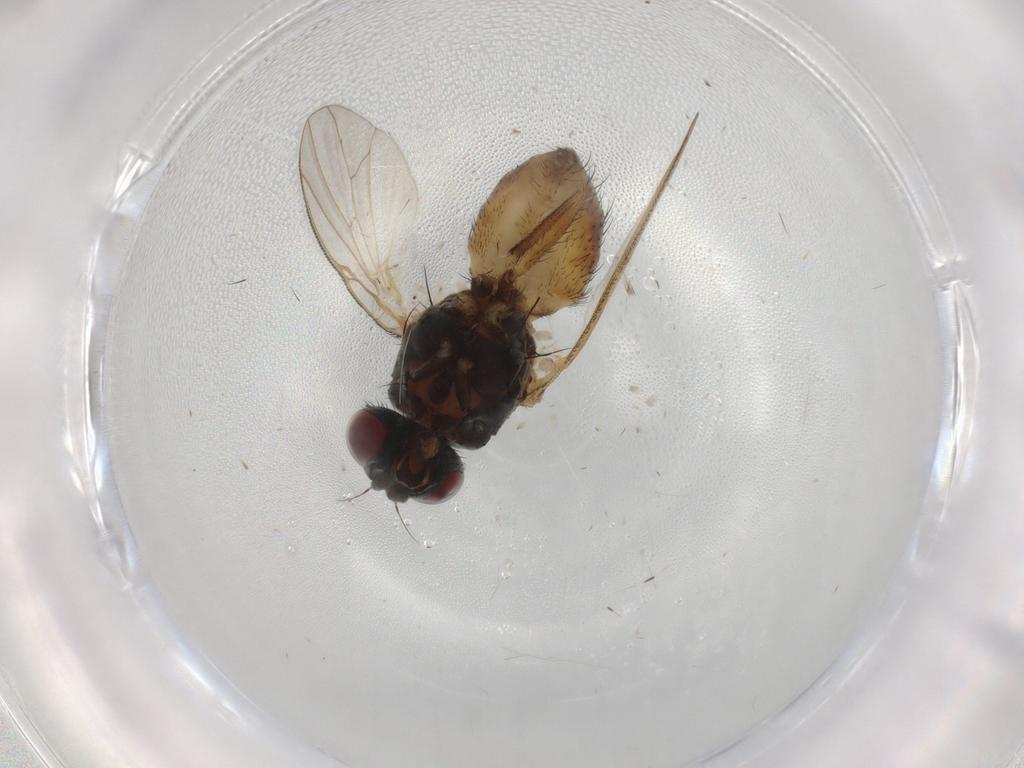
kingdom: Animalia
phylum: Arthropoda
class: Insecta
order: Diptera
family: Muscidae
